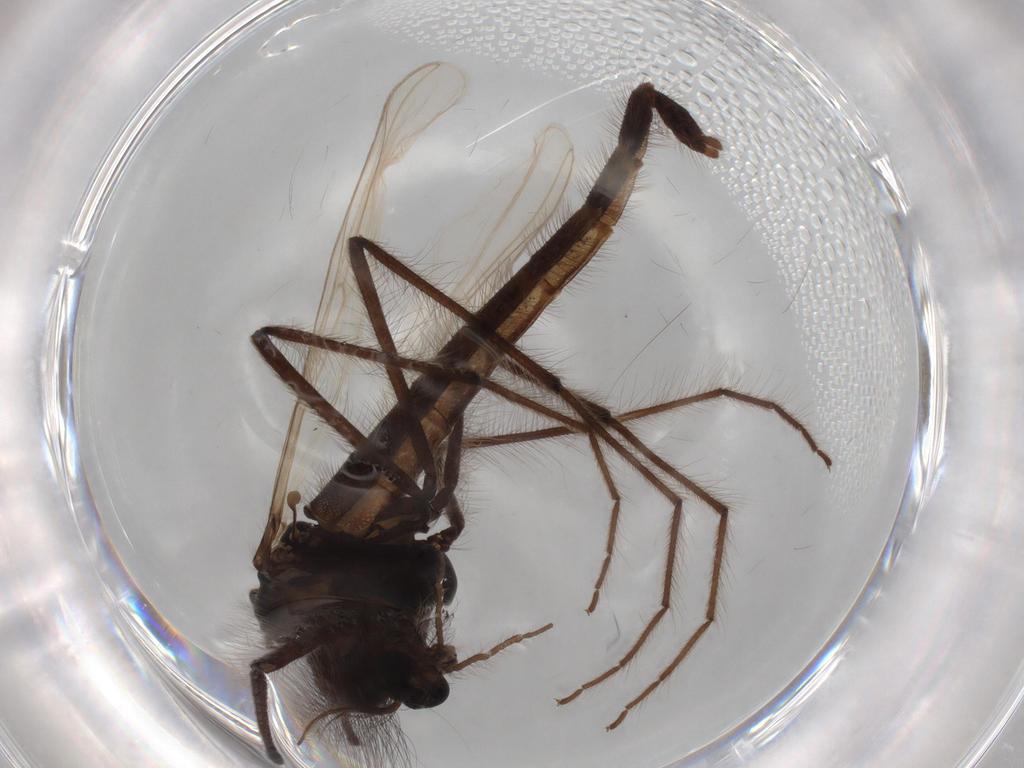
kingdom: Animalia
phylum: Arthropoda
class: Insecta
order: Diptera
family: Chironomidae
